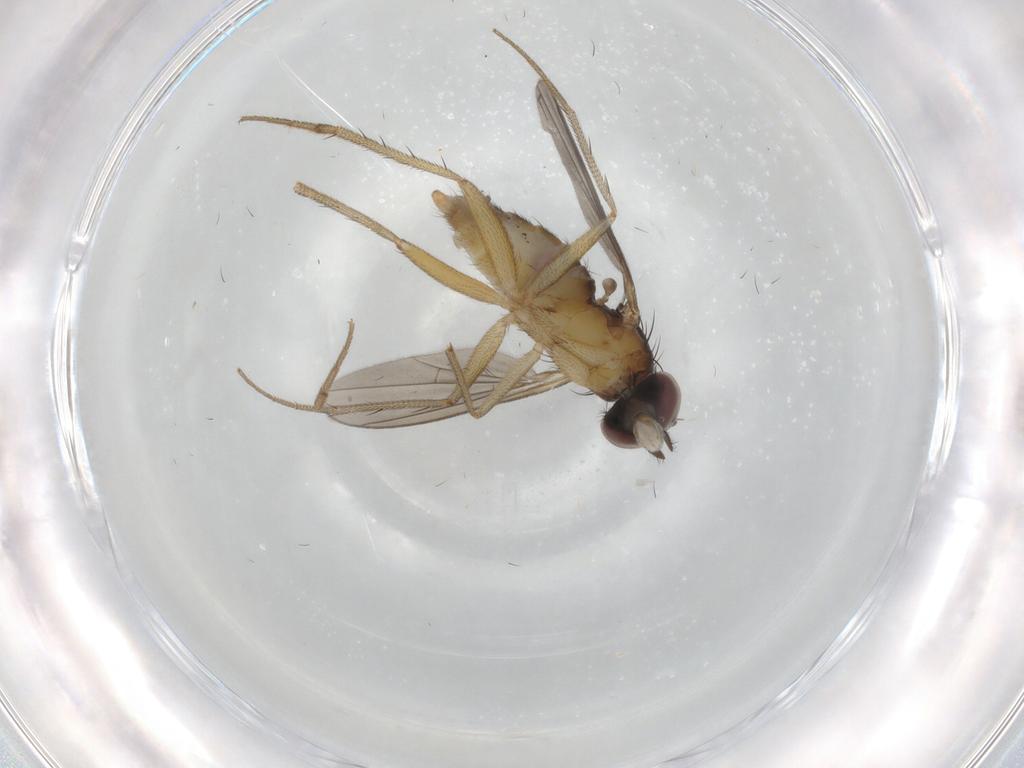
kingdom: Animalia
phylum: Arthropoda
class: Insecta
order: Diptera
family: Dolichopodidae
